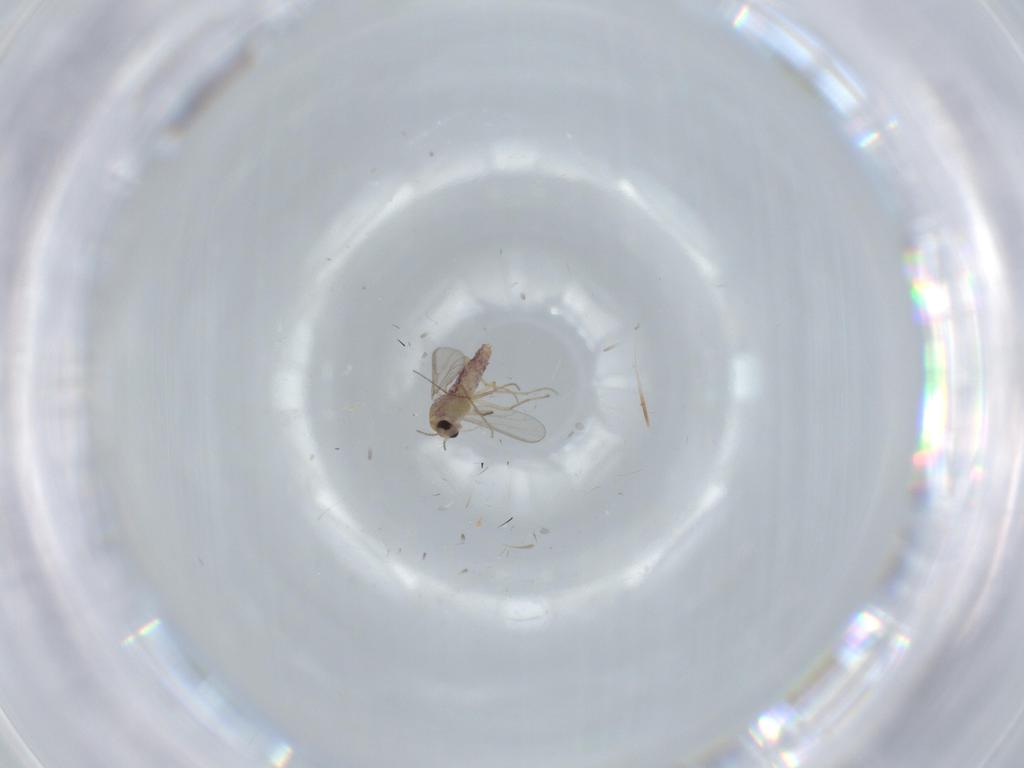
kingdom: Animalia
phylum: Arthropoda
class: Insecta
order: Diptera
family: Chironomidae
